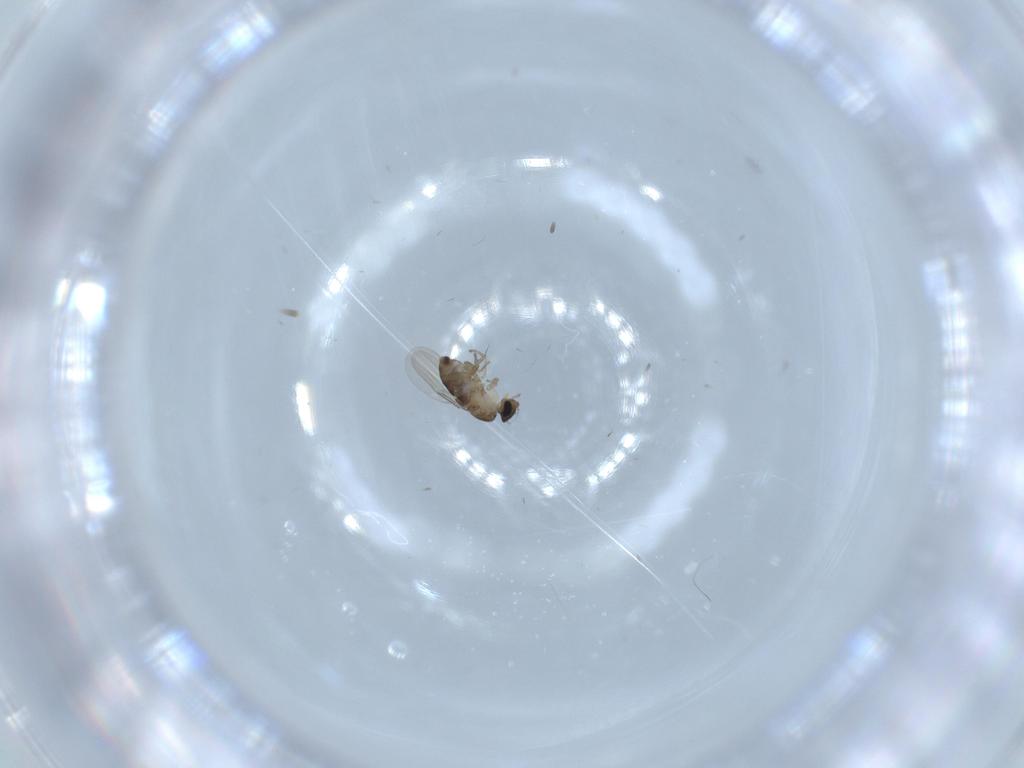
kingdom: Animalia
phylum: Arthropoda
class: Insecta
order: Diptera
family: Phoridae
